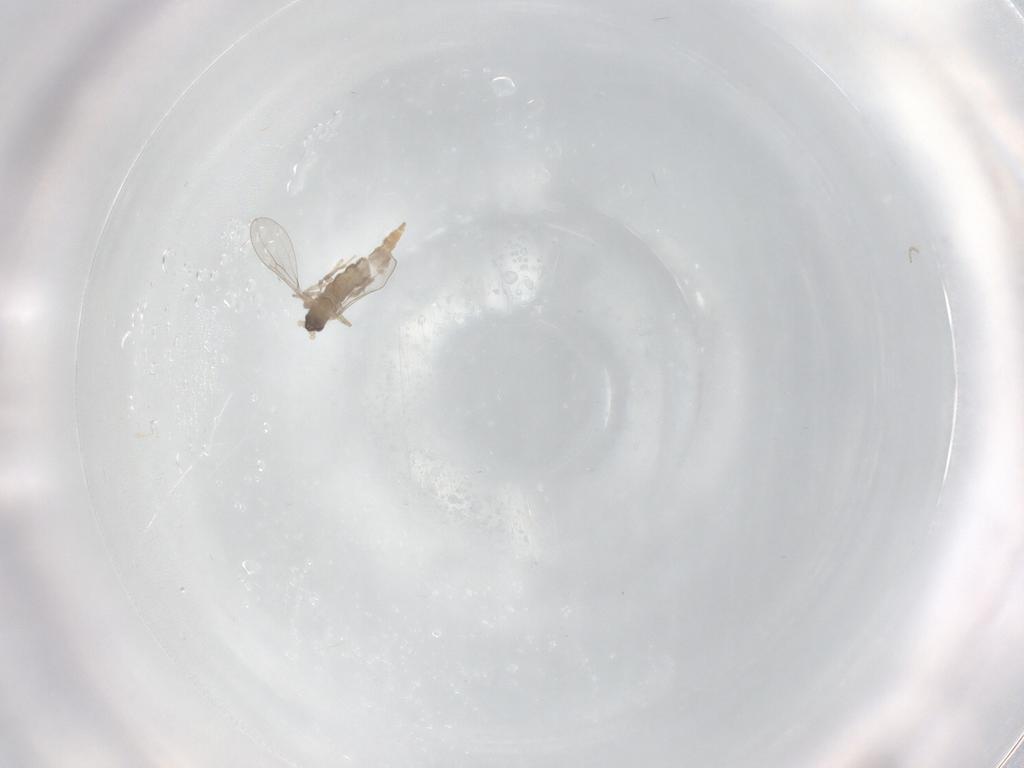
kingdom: Animalia
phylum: Arthropoda
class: Insecta
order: Diptera
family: Cecidomyiidae
